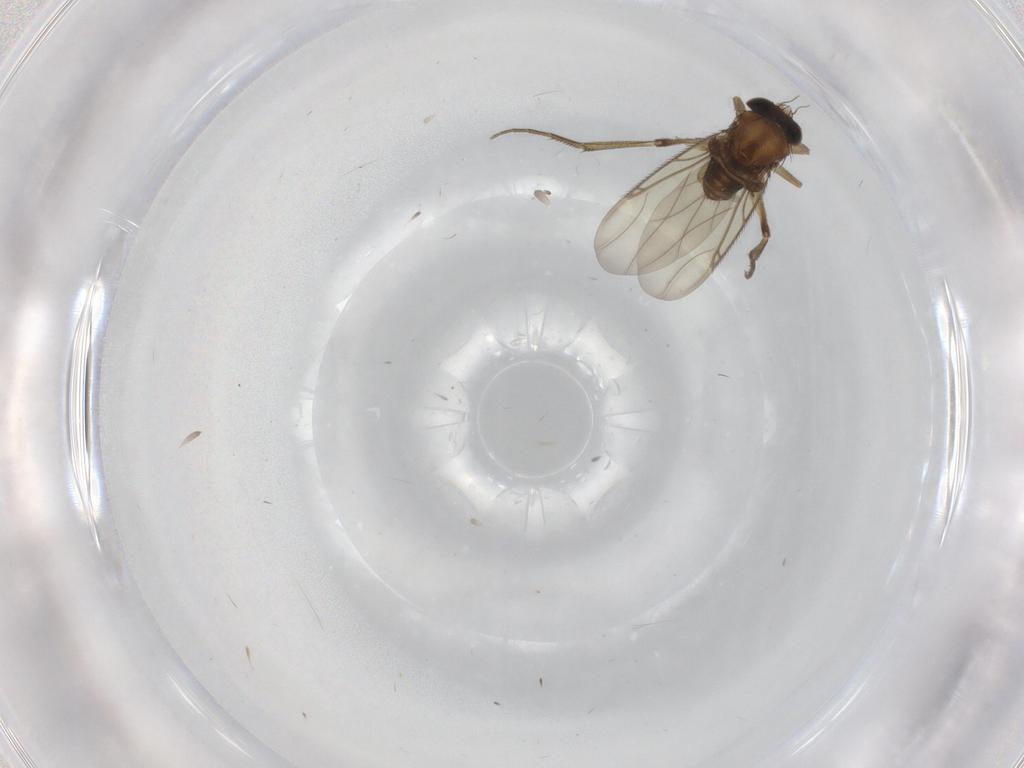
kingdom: Animalia
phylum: Arthropoda
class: Insecta
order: Diptera
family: Phoridae
